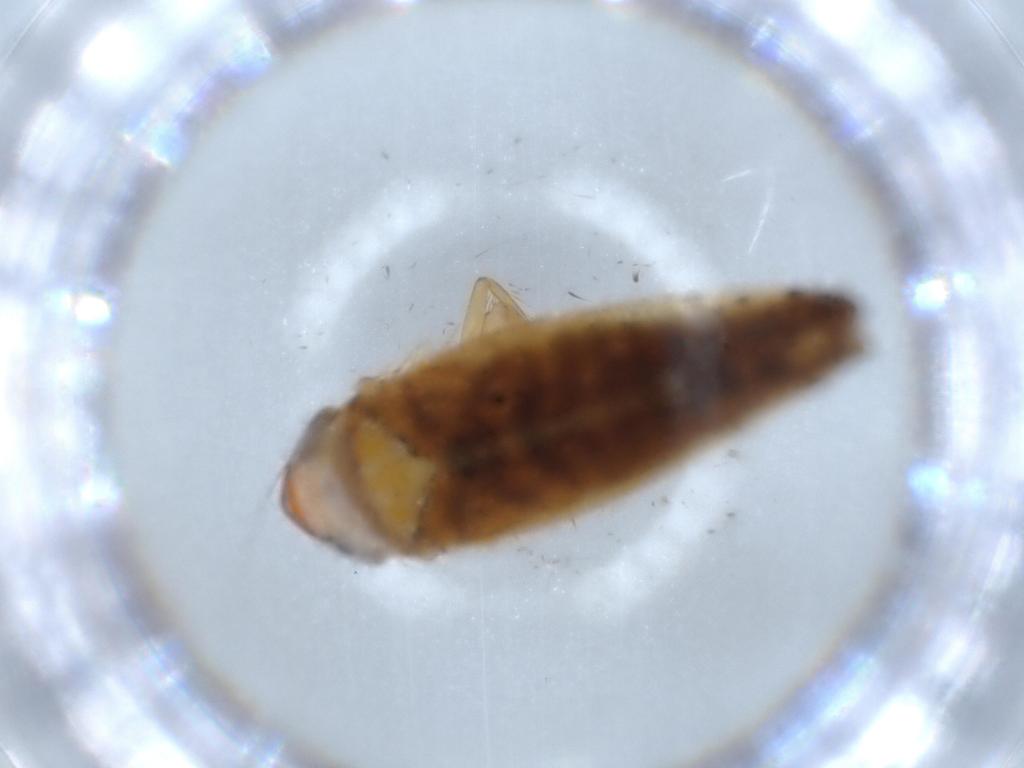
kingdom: Animalia
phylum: Arthropoda
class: Insecta
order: Hemiptera
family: Cicadellidae
